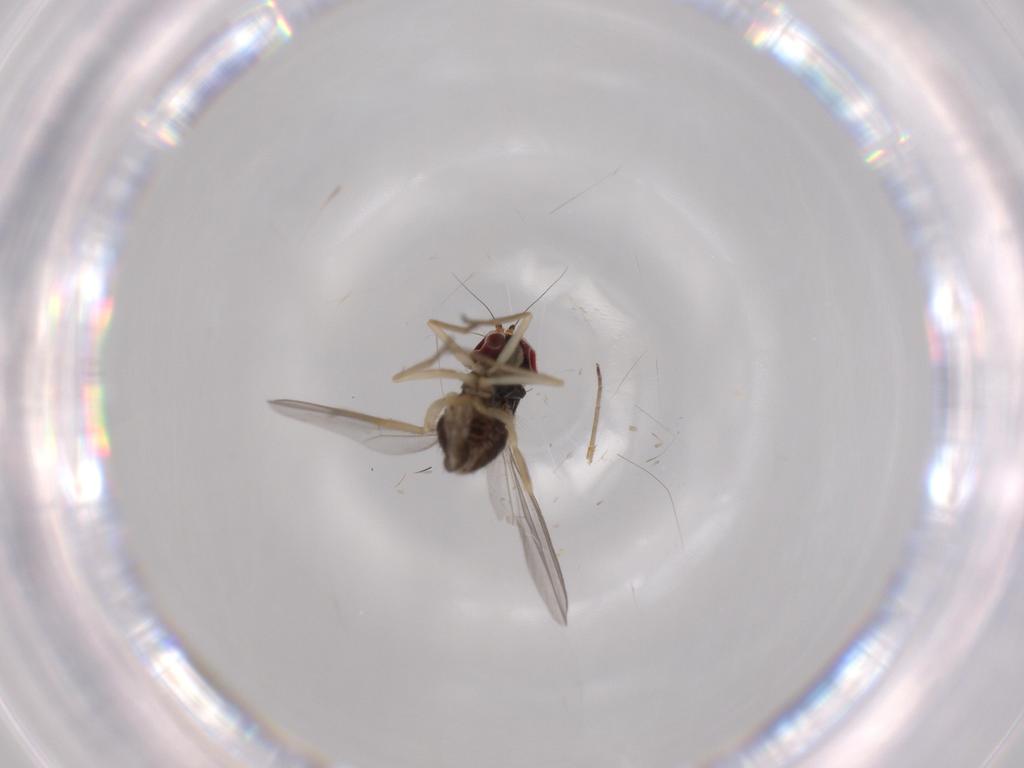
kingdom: Animalia
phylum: Arthropoda
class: Insecta
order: Diptera
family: Dolichopodidae
